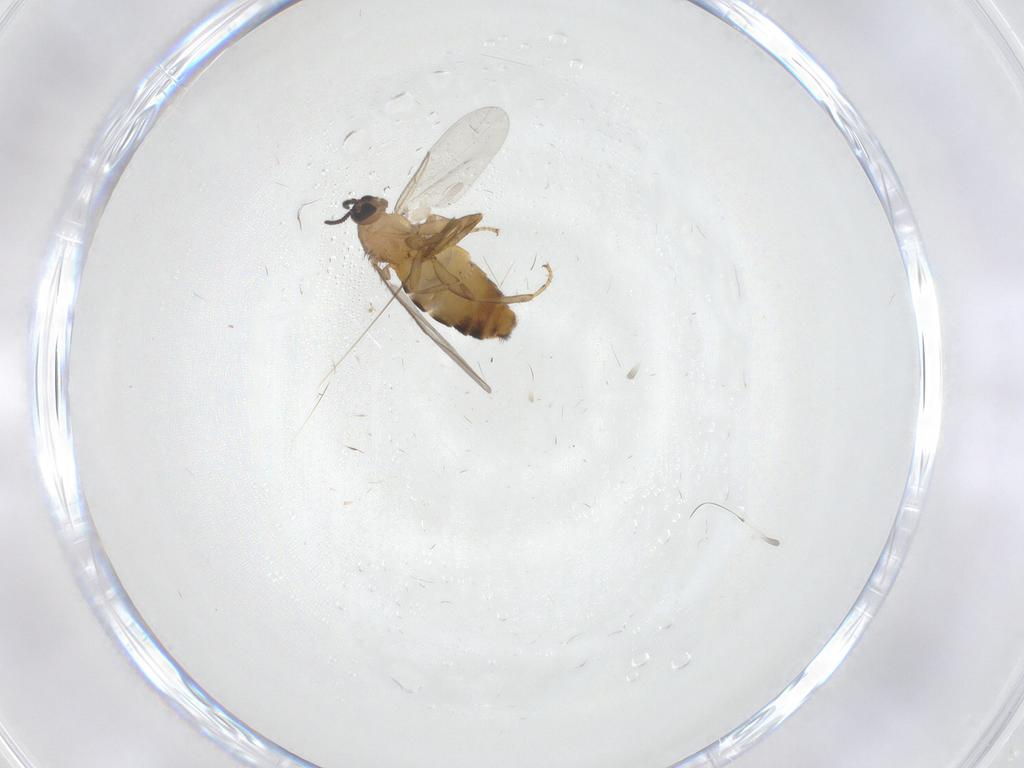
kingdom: Animalia
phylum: Arthropoda
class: Insecta
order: Diptera
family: Scatopsidae
